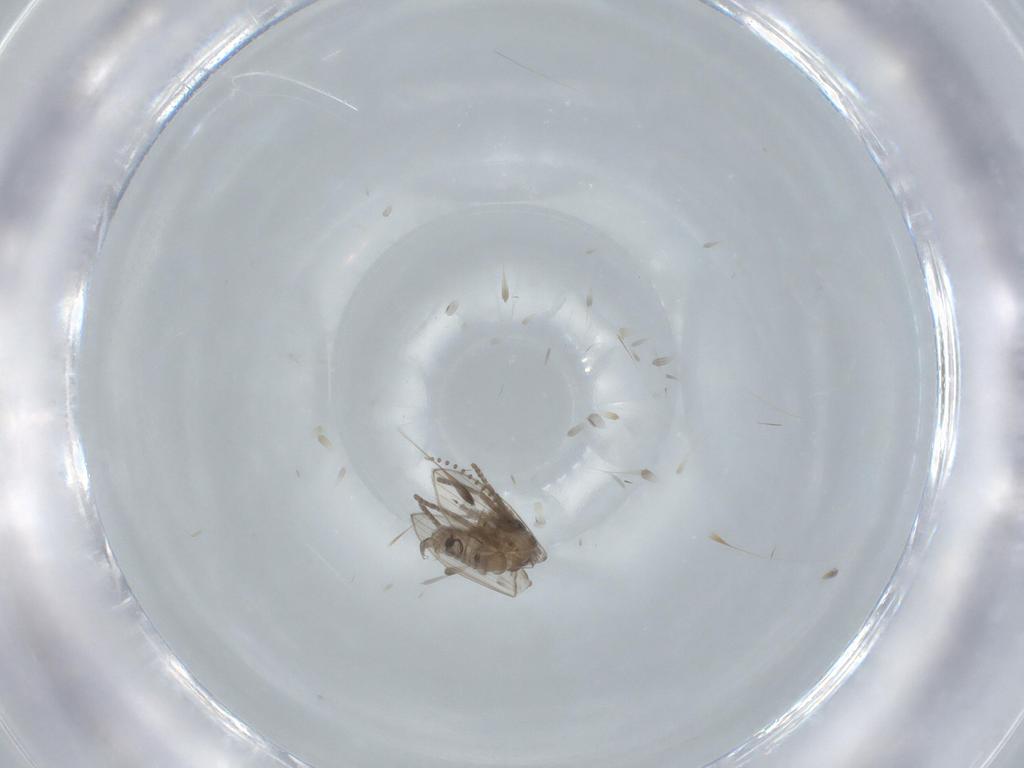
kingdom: Animalia
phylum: Arthropoda
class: Insecta
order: Diptera
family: Psychodidae
